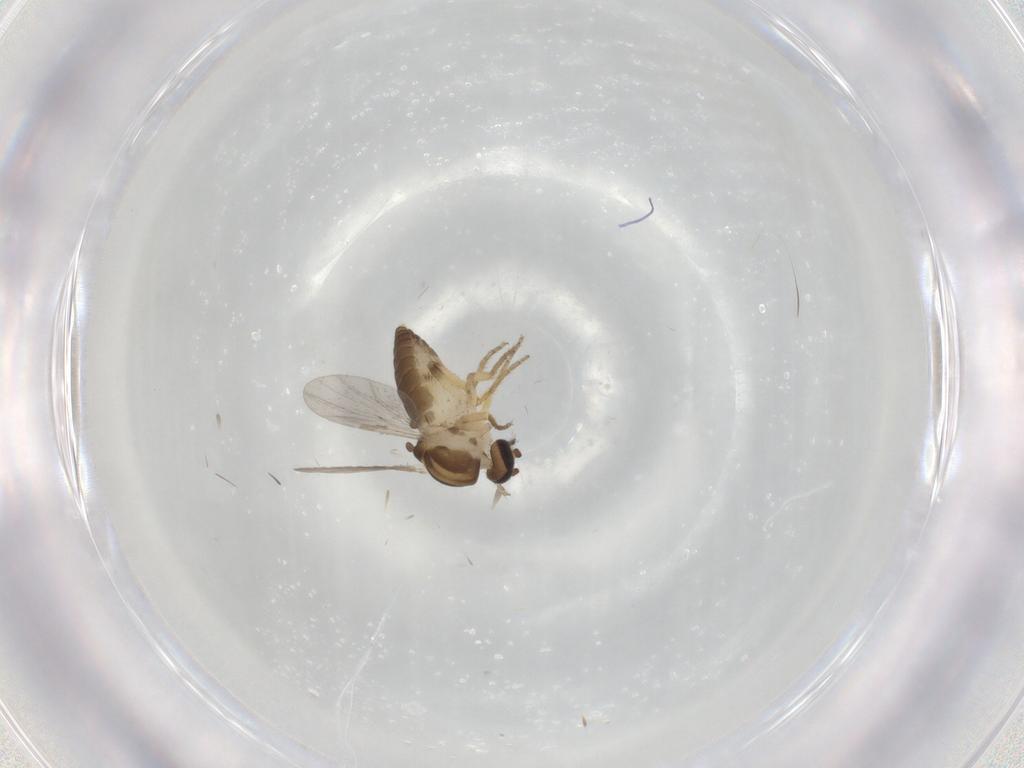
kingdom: Animalia
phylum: Arthropoda
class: Insecta
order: Diptera
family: Ceratopogonidae
